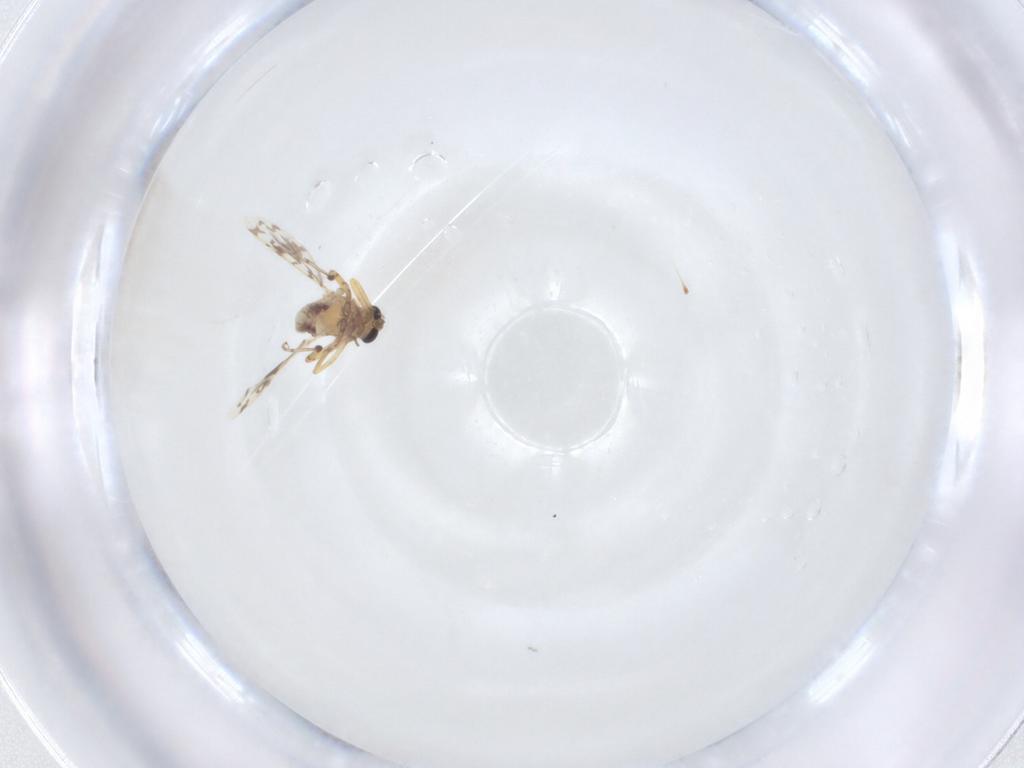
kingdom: Animalia
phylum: Arthropoda
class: Insecta
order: Diptera
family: Ceratopogonidae
